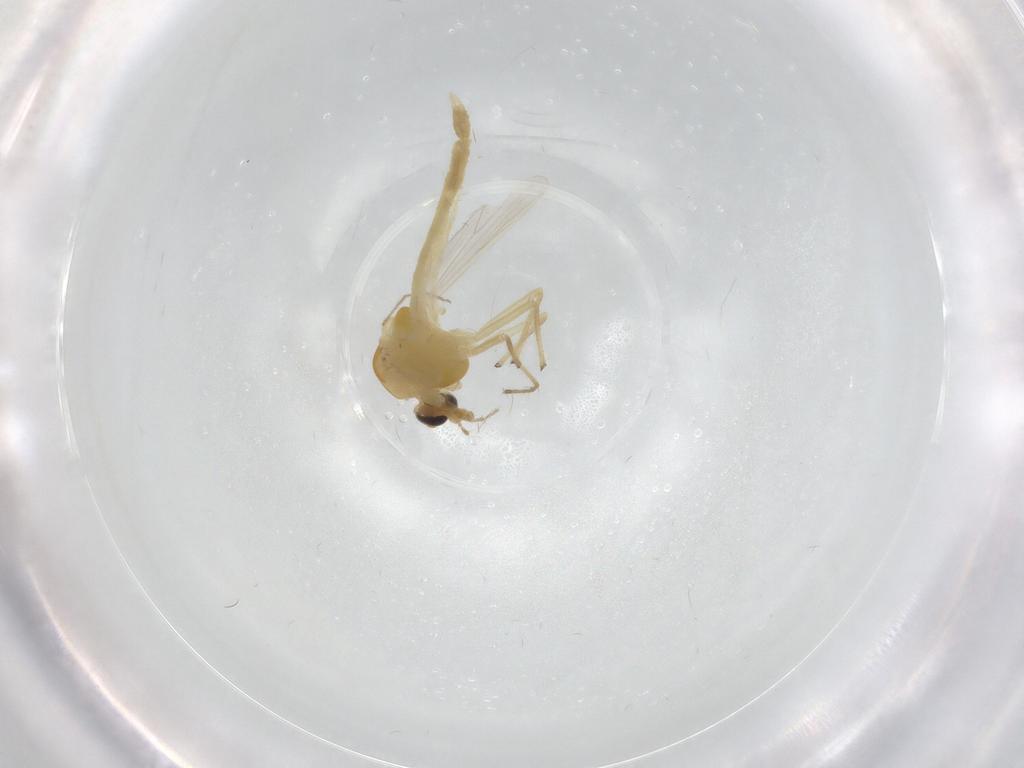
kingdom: Animalia
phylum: Arthropoda
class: Insecta
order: Diptera
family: Chironomidae
